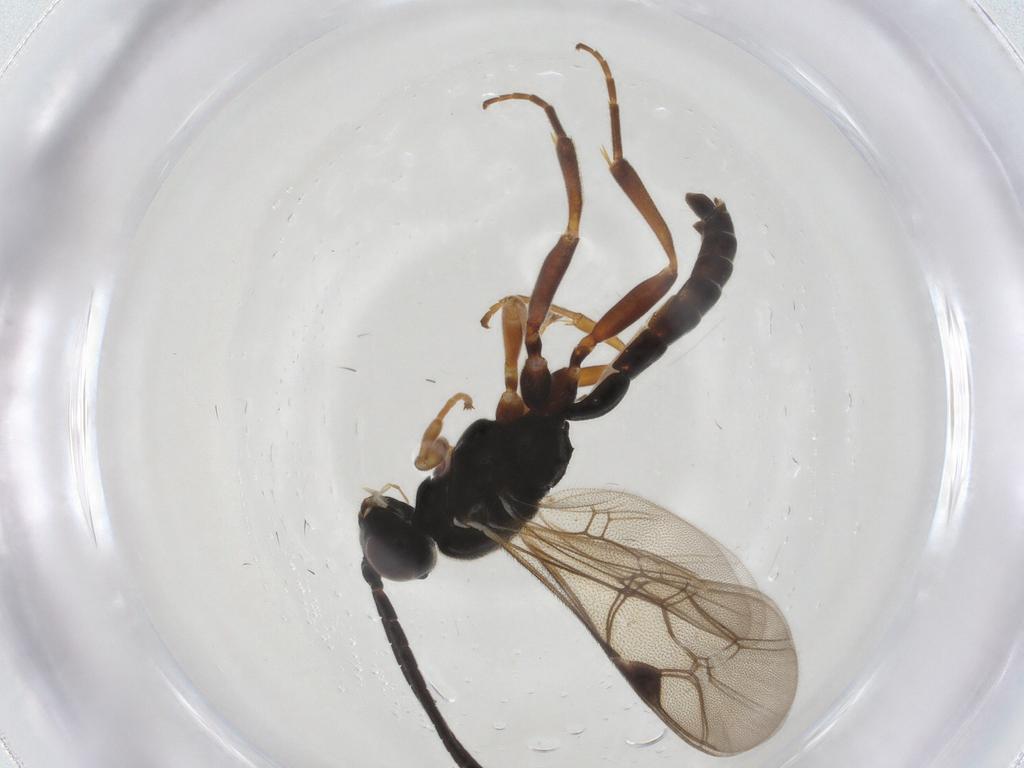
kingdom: Animalia
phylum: Arthropoda
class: Insecta
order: Hymenoptera
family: Ichneumonidae
